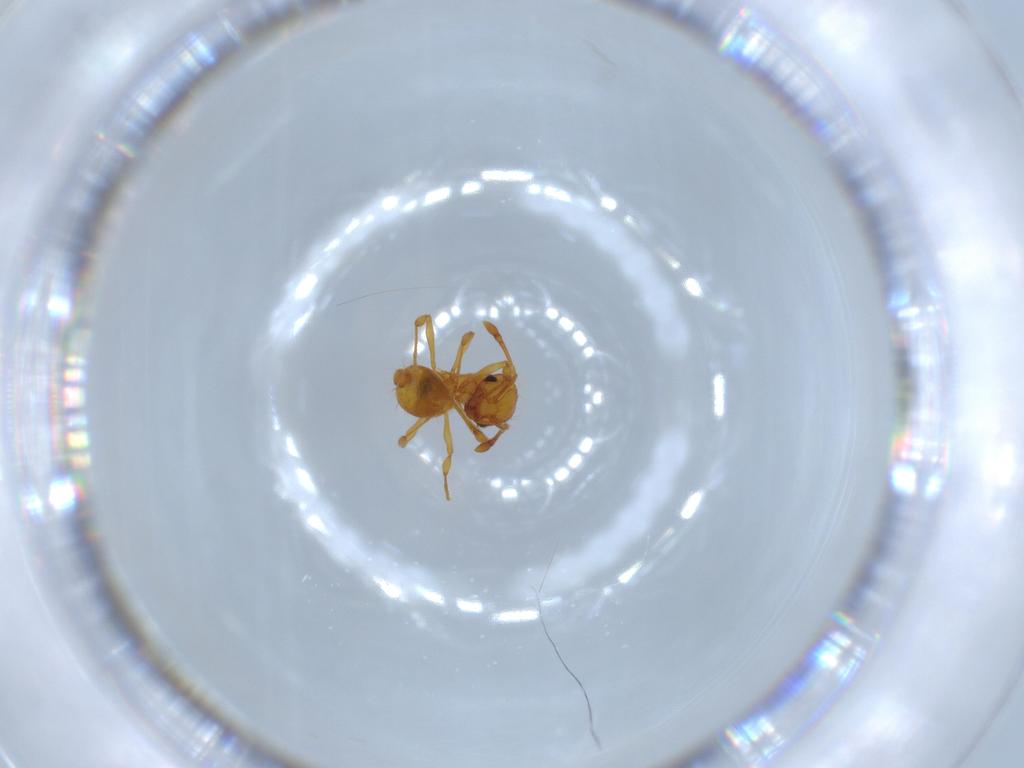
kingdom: Animalia
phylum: Arthropoda
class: Insecta
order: Hymenoptera
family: Formicidae
